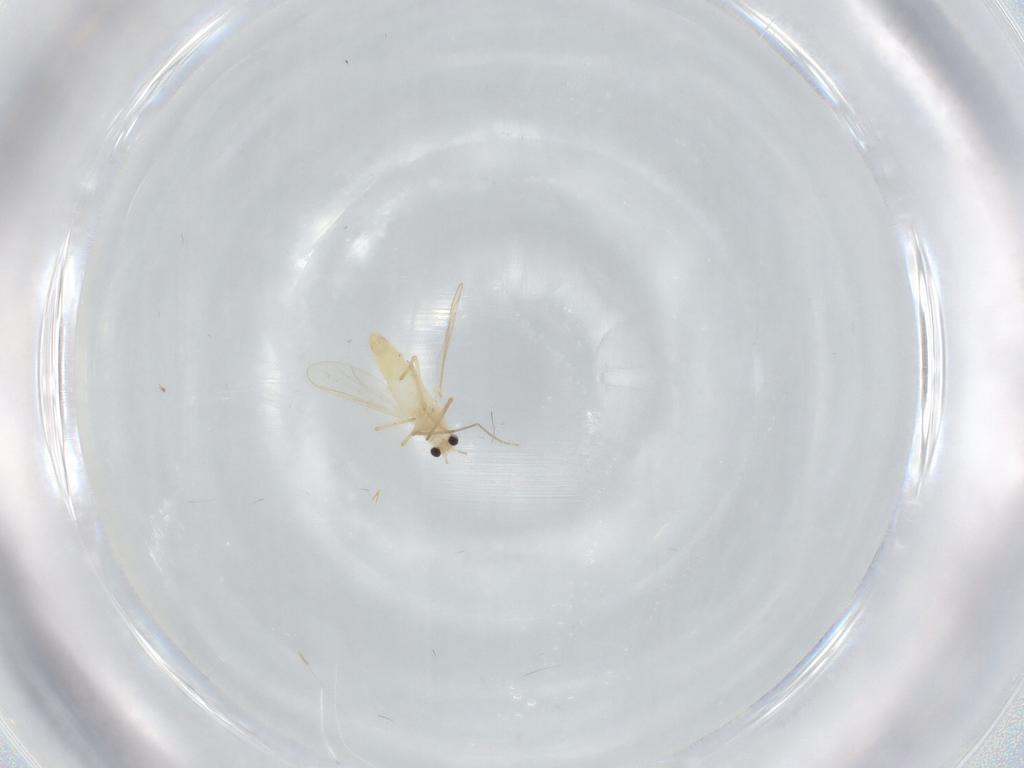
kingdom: Animalia
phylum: Arthropoda
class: Insecta
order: Diptera
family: Chironomidae
